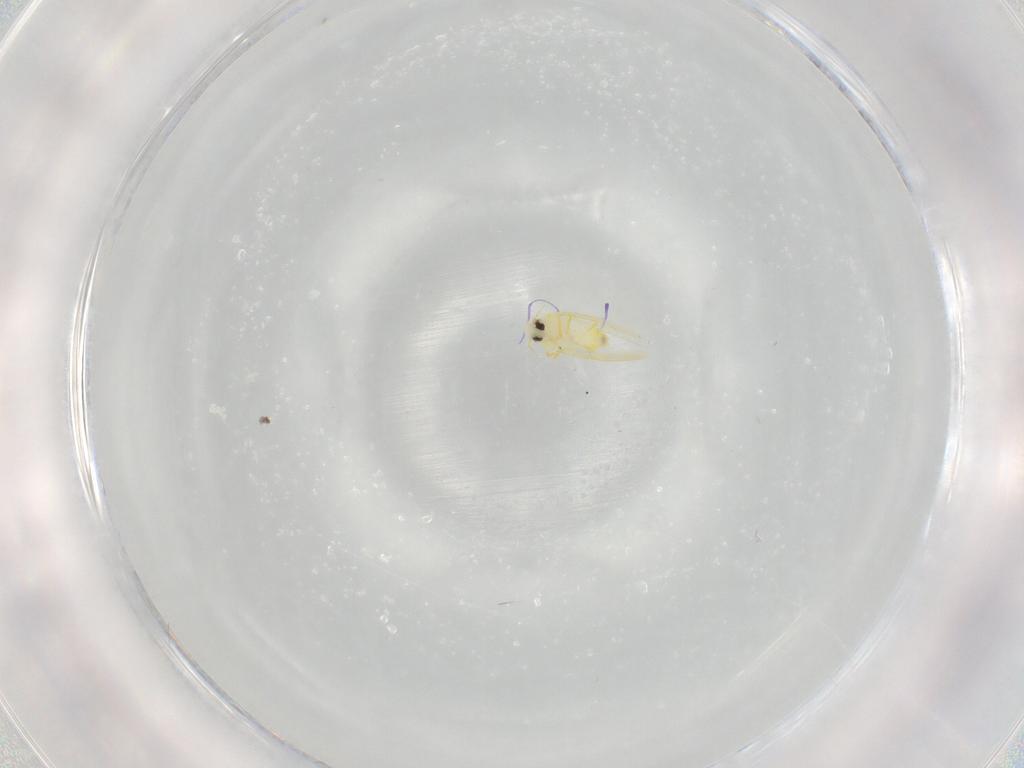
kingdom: Animalia
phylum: Arthropoda
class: Insecta
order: Hemiptera
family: Aleyrodidae
